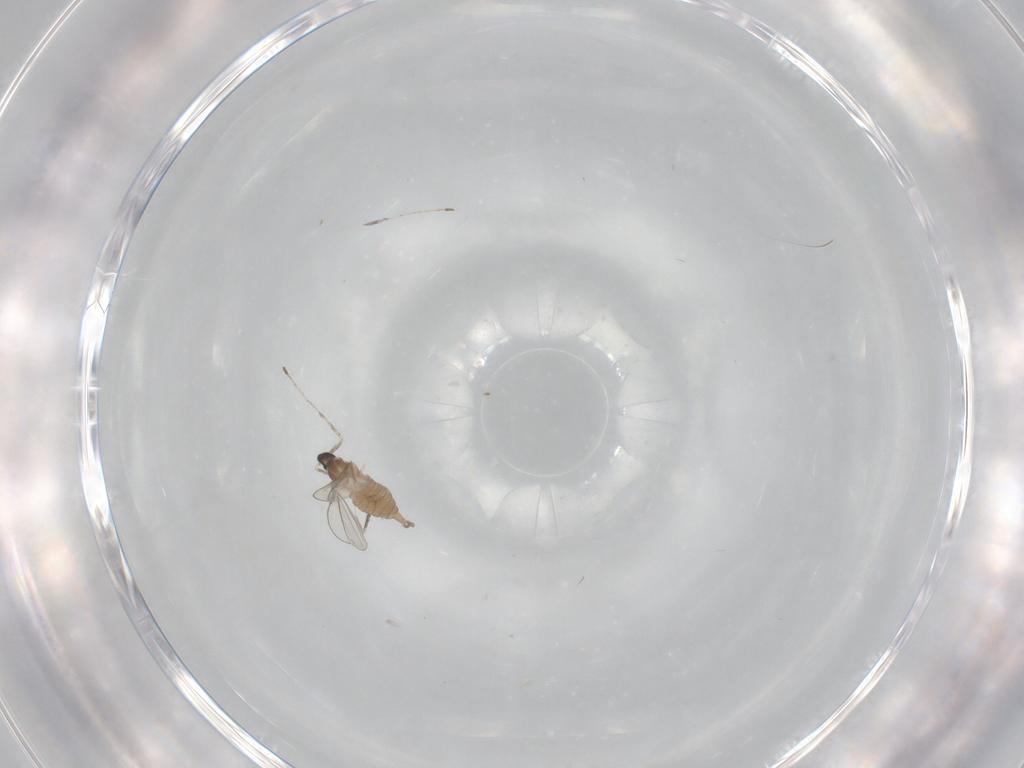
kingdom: Animalia
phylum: Arthropoda
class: Insecta
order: Diptera
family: Cecidomyiidae
